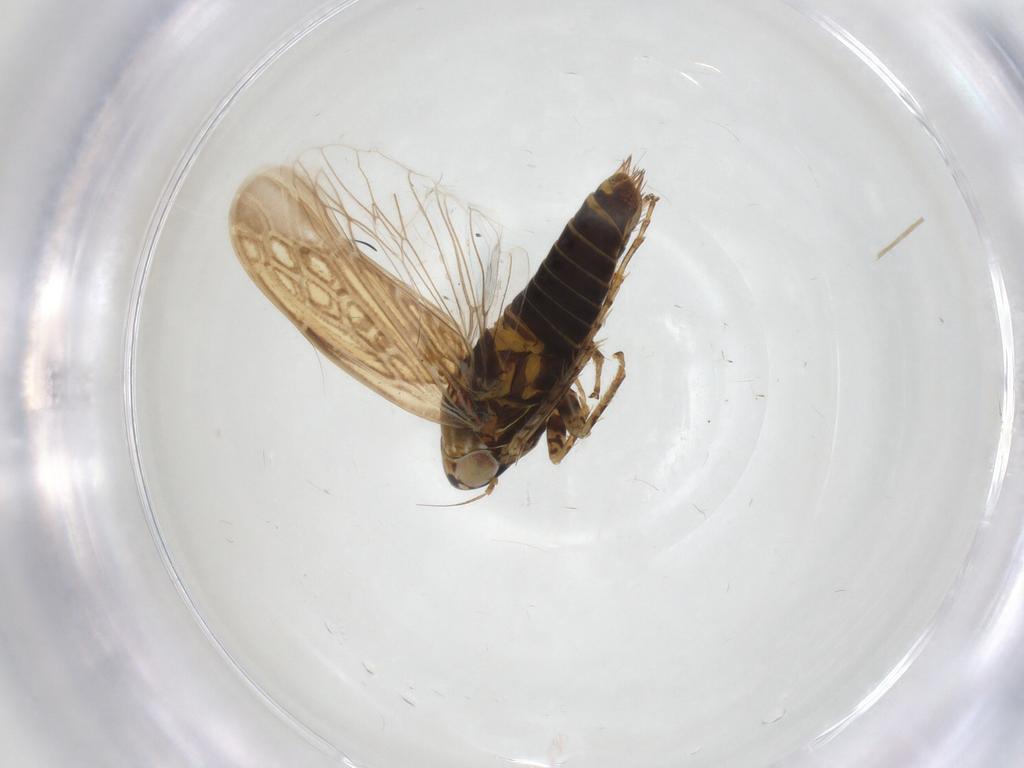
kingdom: Animalia
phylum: Arthropoda
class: Insecta
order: Hemiptera
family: Cicadellidae
